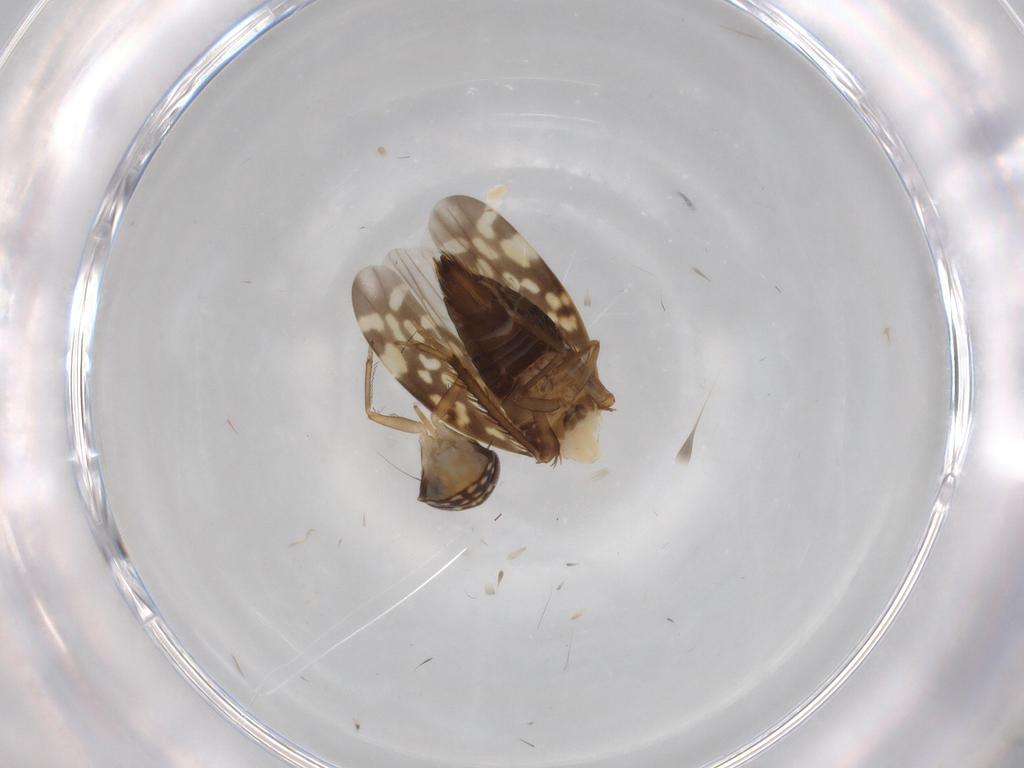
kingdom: Animalia
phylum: Arthropoda
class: Insecta
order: Hemiptera
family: Cicadellidae
